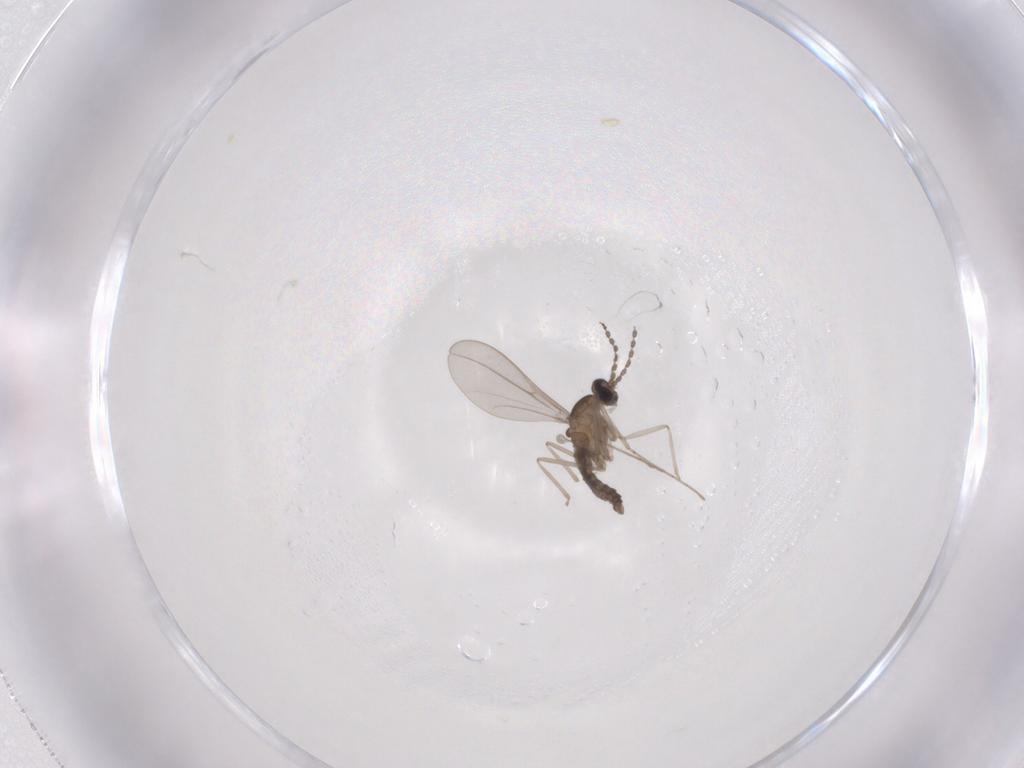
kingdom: Animalia
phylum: Arthropoda
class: Insecta
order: Diptera
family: Cecidomyiidae
